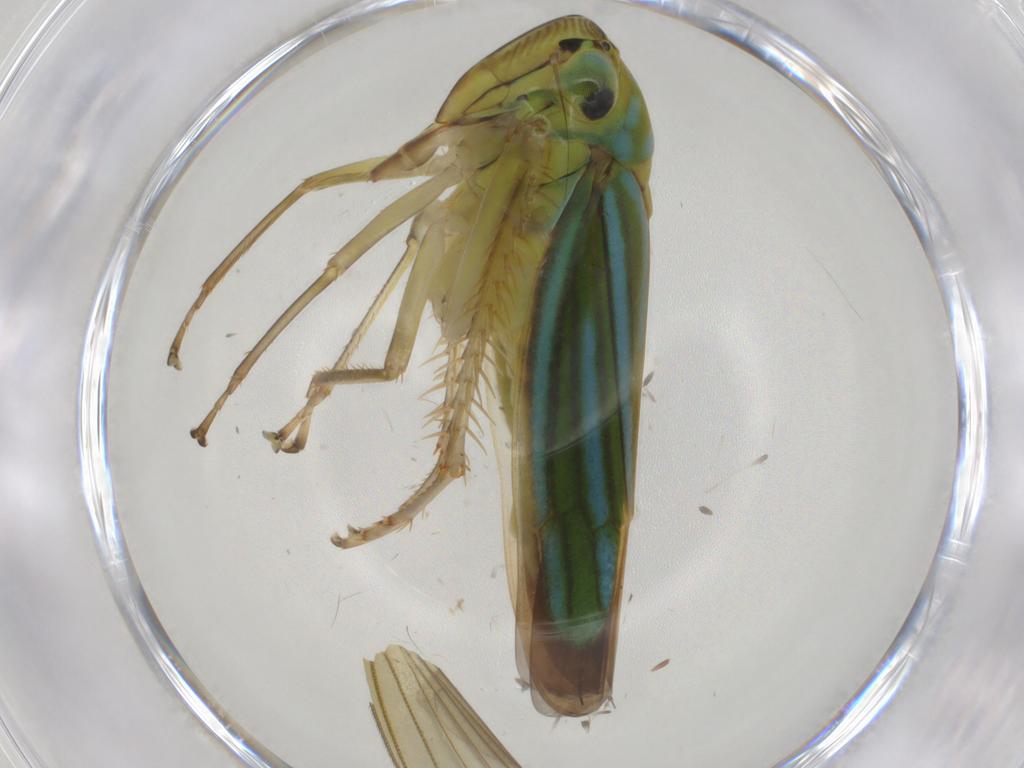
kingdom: Animalia
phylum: Arthropoda
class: Insecta
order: Hemiptera
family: Cicadellidae
